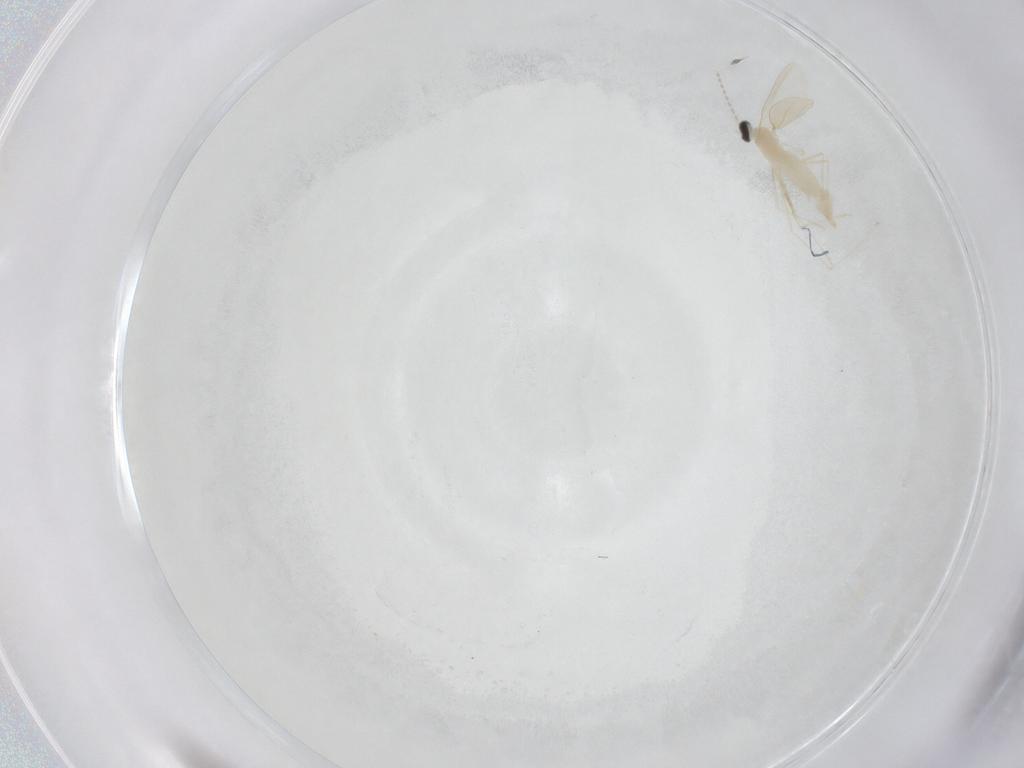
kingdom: Animalia
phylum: Arthropoda
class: Insecta
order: Diptera
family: Cecidomyiidae
